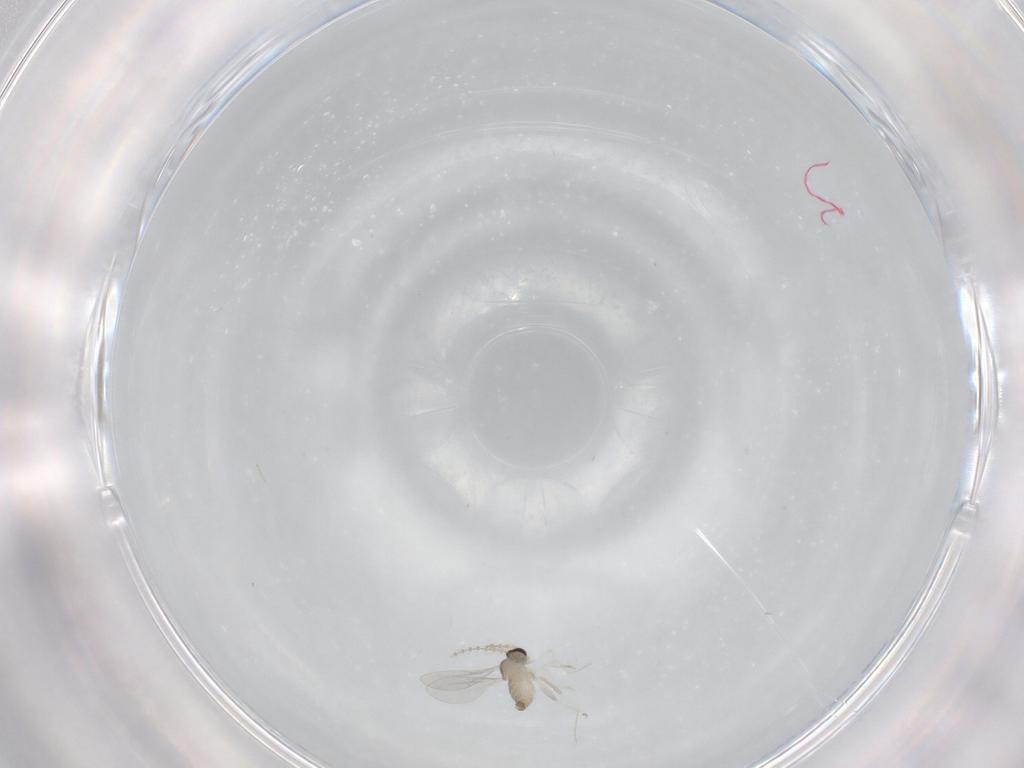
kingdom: Animalia
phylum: Arthropoda
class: Insecta
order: Diptera
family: Cecidomyiidae
